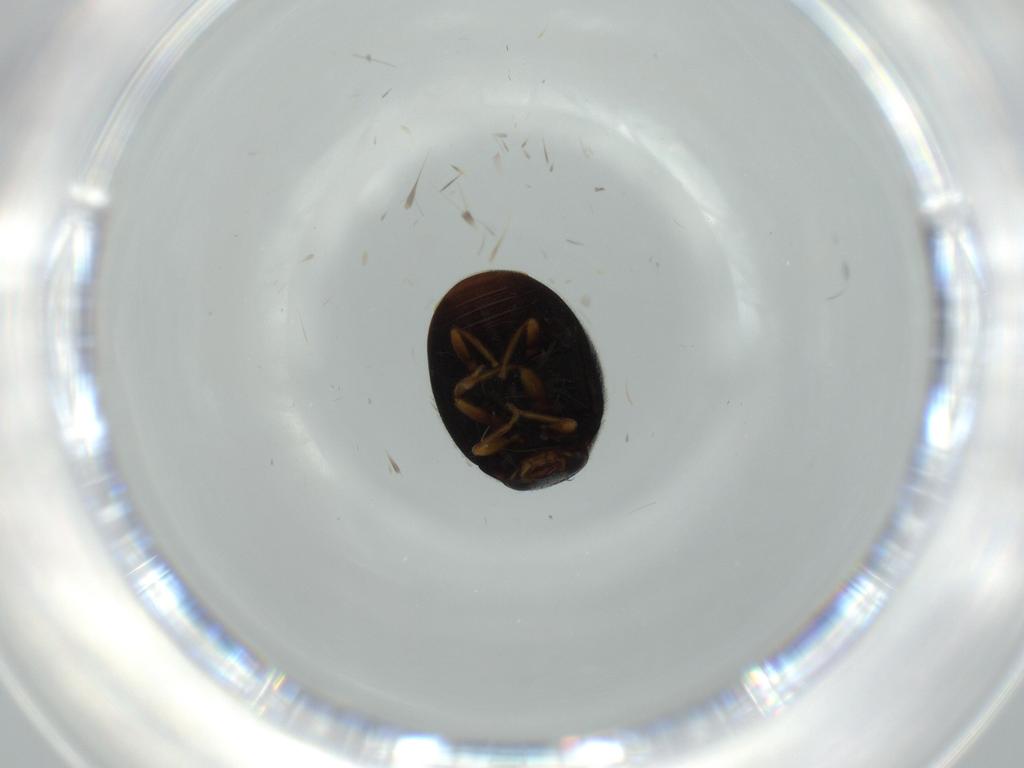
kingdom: Animalia
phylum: Arthropoda
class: Insecta
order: Coleoptera
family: Coccinellidae
